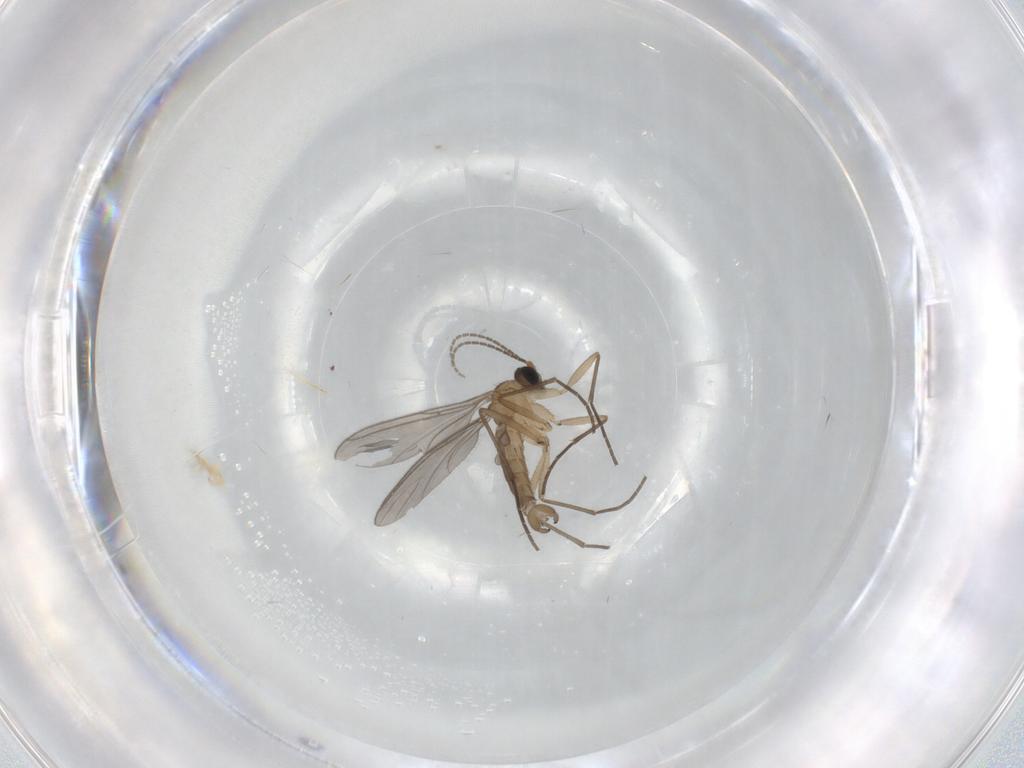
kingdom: Animalia
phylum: Arthropoda
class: Insecta
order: Diptera
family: Sciaridae
